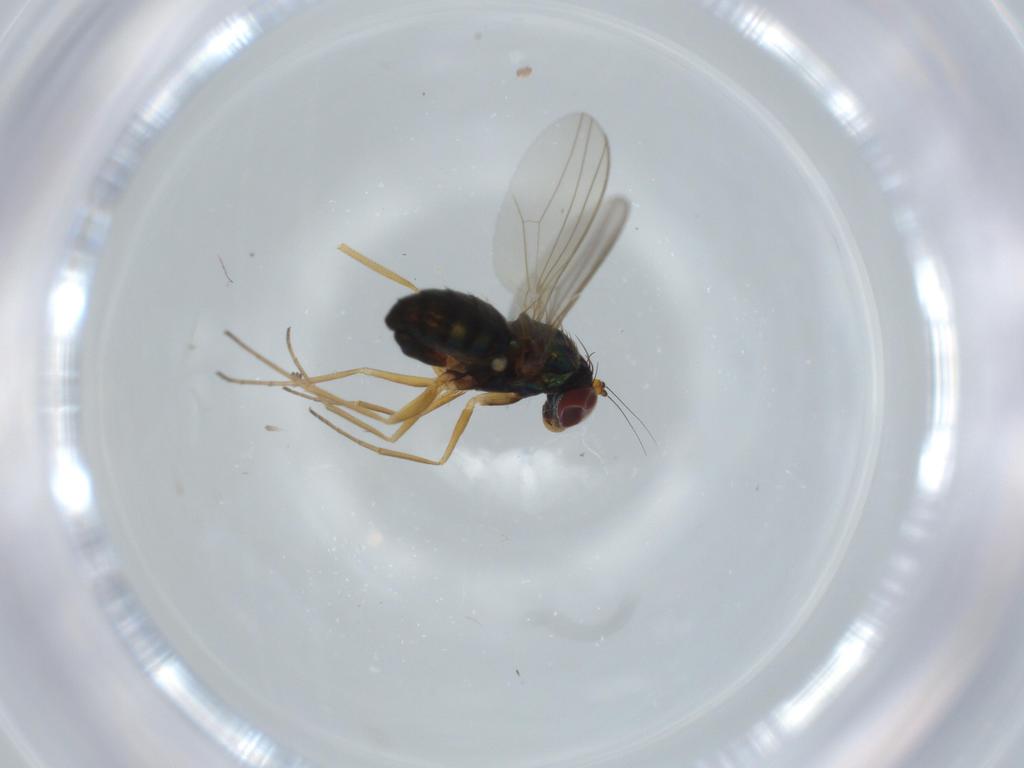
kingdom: Animalia
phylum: Arthropoda
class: Insecta
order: Diptera
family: Dolichopodidae
